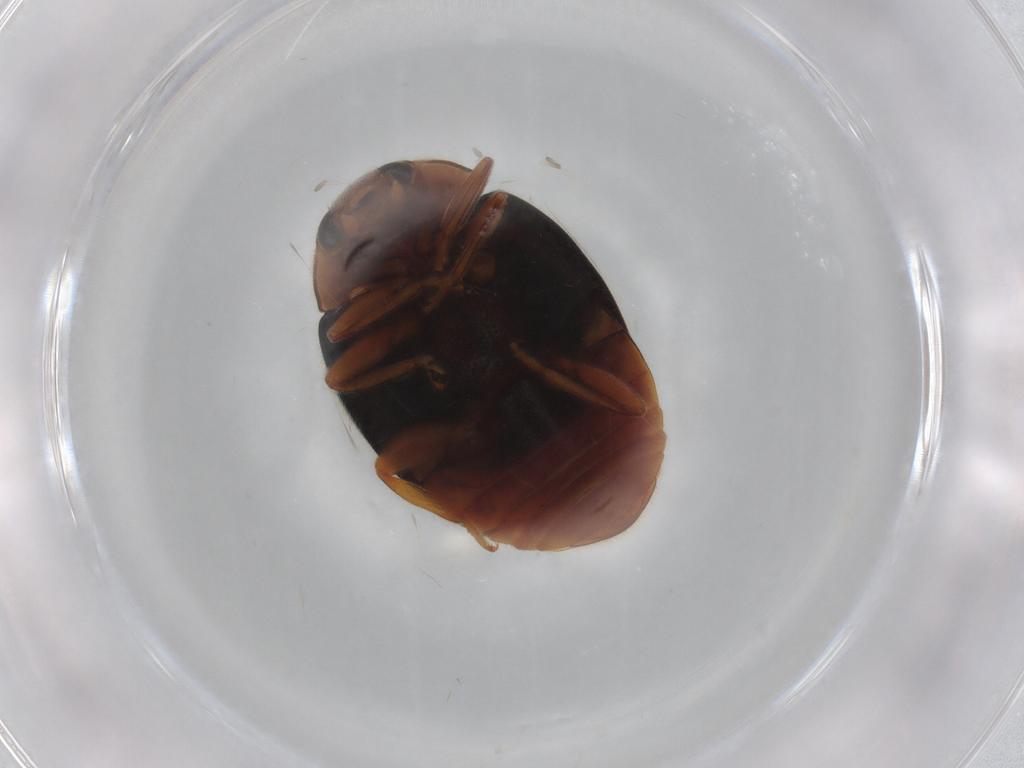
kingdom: Animalia
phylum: Arthropoda
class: Insecta
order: Coleoptera
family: Coccinellidae
